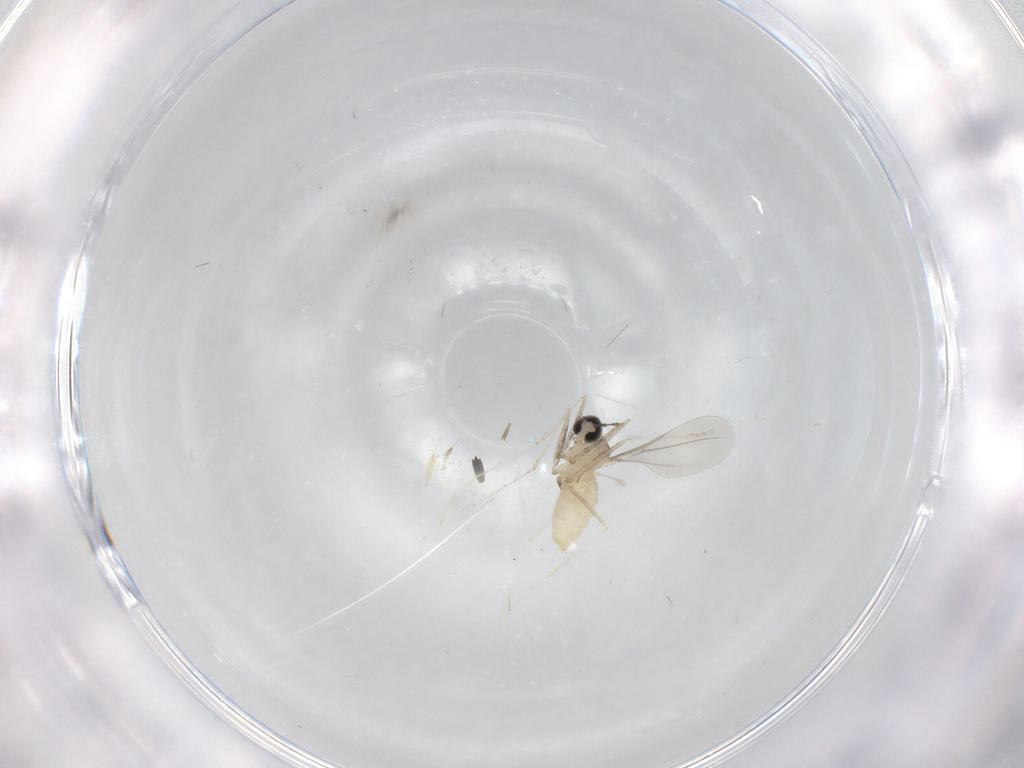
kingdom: Animalia
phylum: Arthropoda
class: Insecta
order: Diptera
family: Cecidomyiidae
